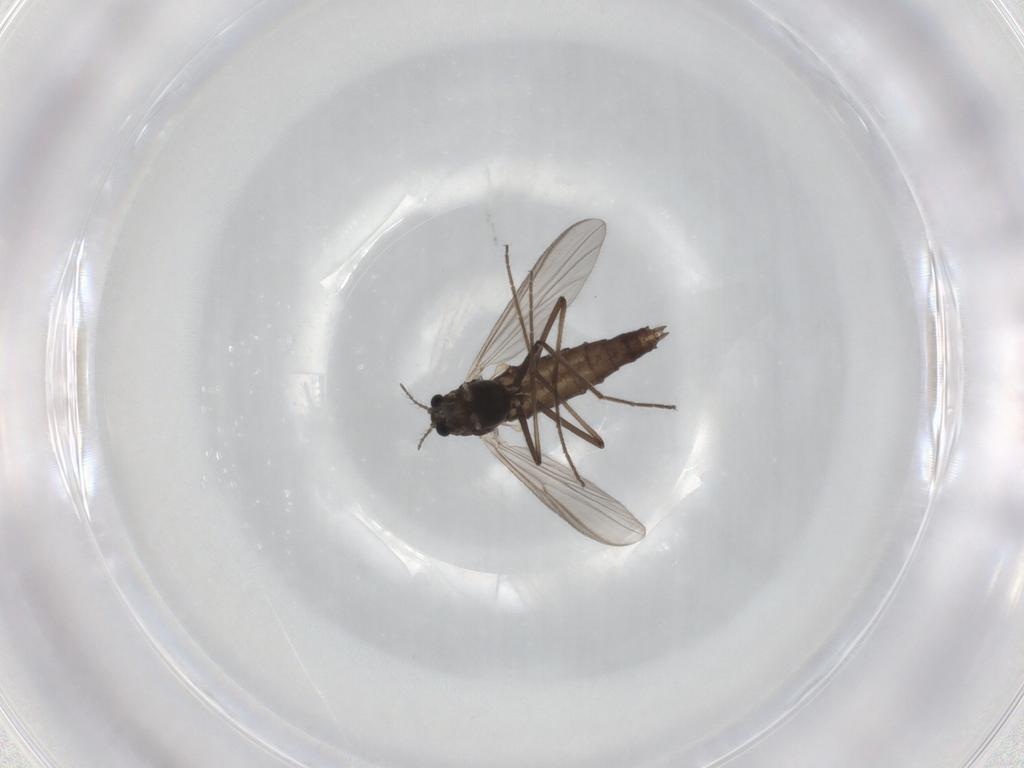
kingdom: Animalia
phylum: Arthropoda
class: Insecta
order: Diptera
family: Chironomidae
